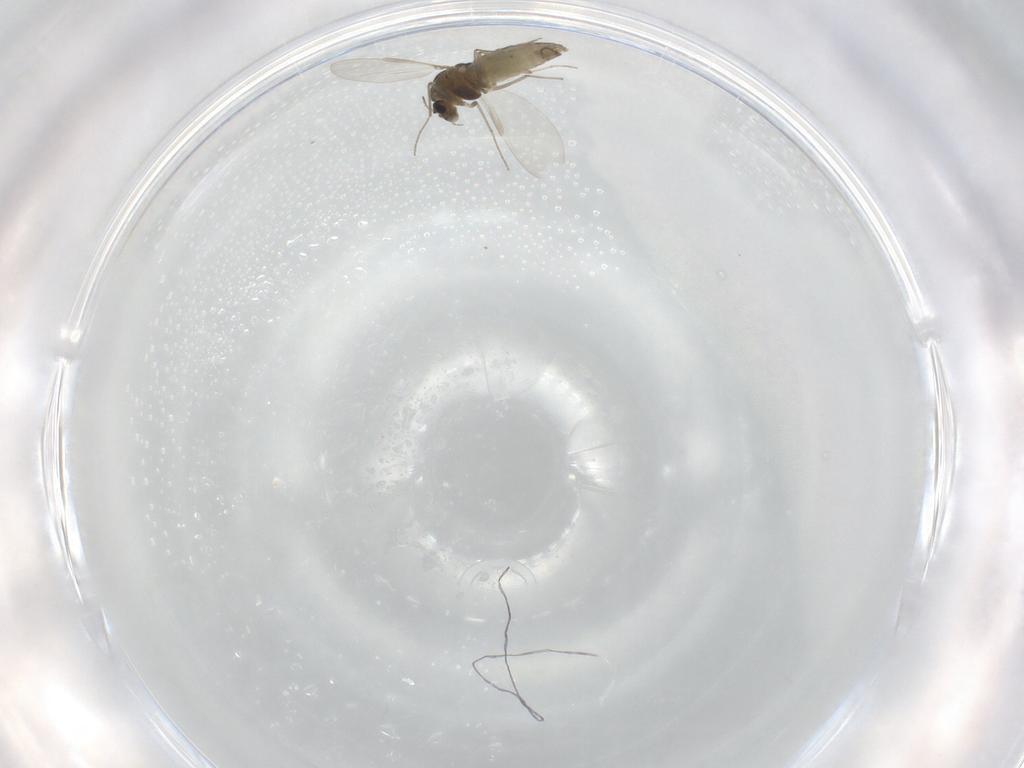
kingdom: Animalia
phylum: Arthropoda
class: Insecta
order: Diptera
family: Chironomidae
